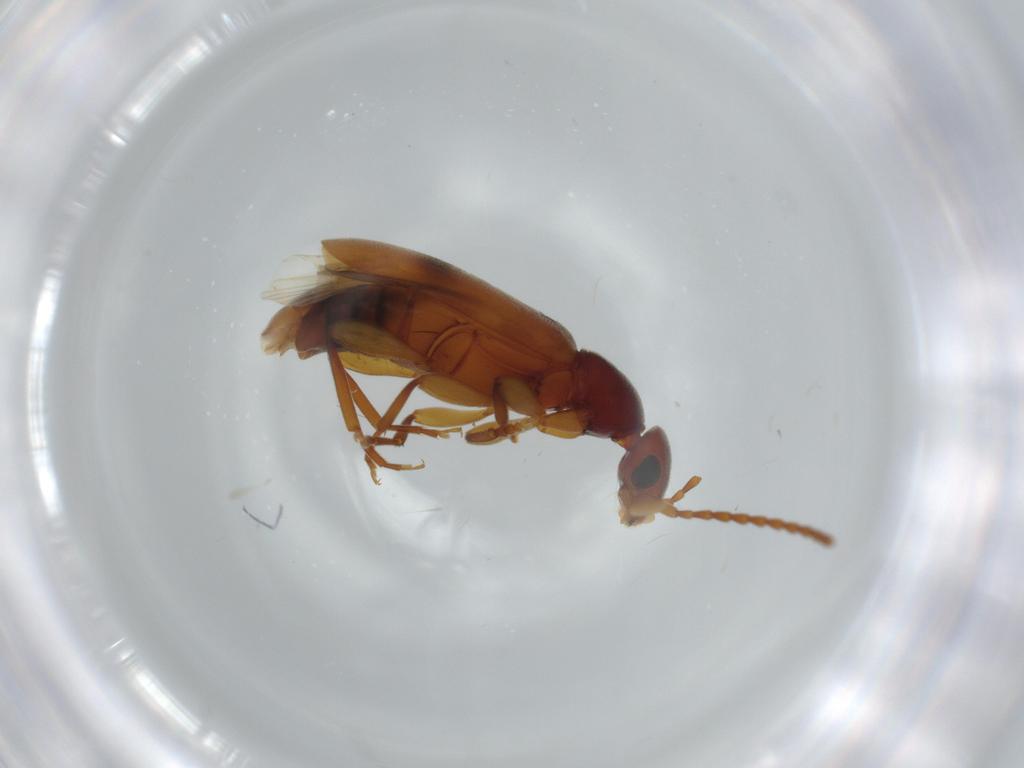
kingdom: Animalia
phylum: Arthropoda
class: Insecta
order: Coleoptera
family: Anthicidae
